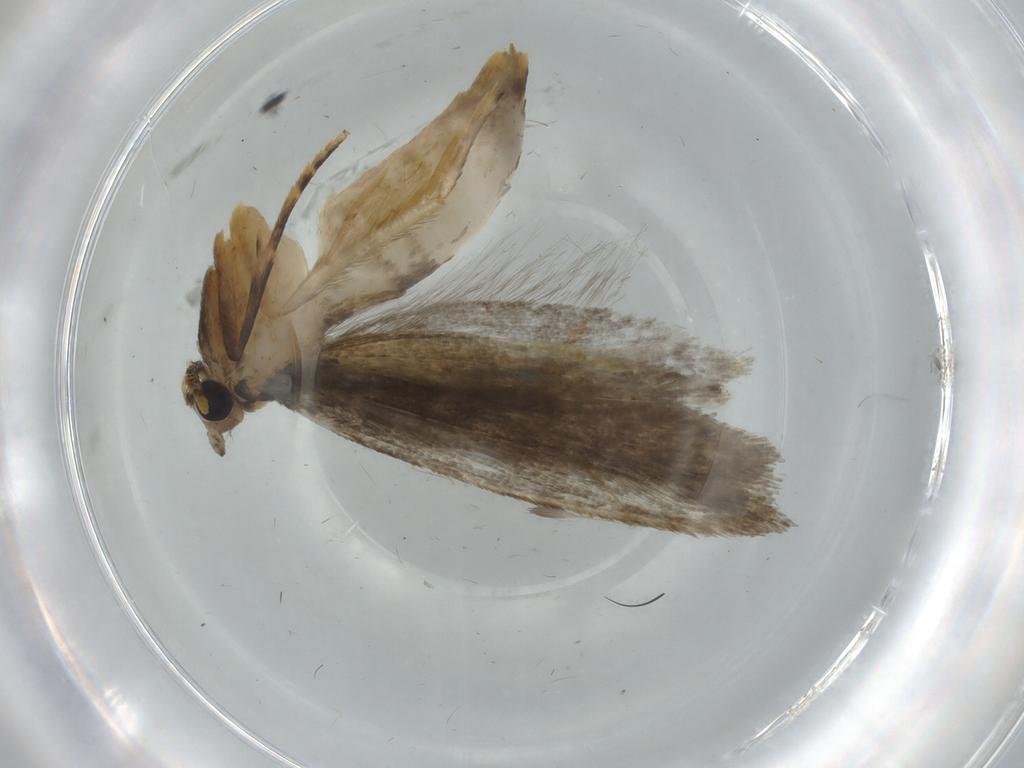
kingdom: Animalia
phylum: Arthropoda
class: Insecta
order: Lepidoptera
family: Tineidae
